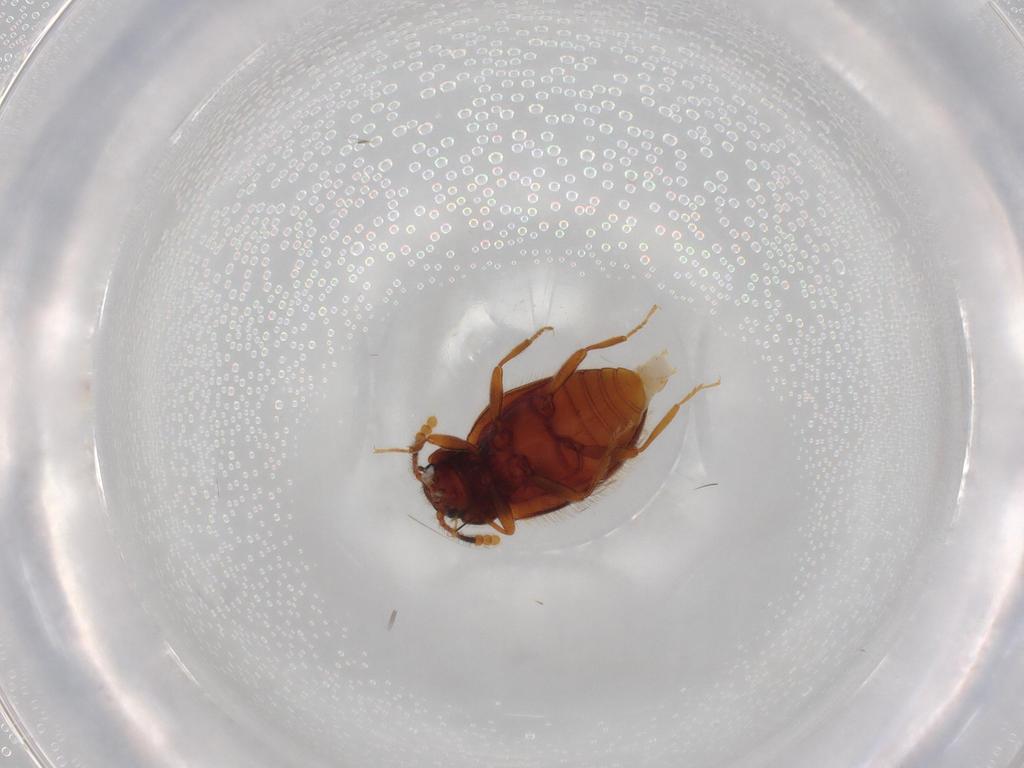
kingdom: Animalia
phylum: Arthropoda
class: Insecta
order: Coleoptera
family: Erotylidae
